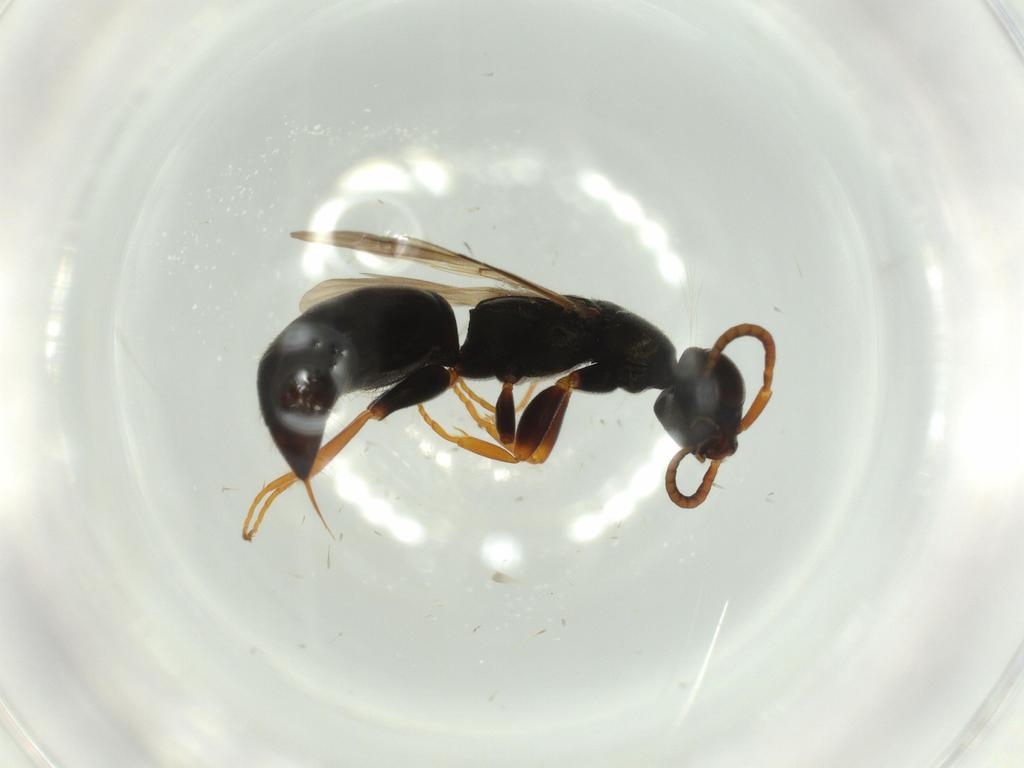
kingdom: Animalia
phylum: Arthropoda
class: Insecta
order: Hymenoptera
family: Bethylidae
